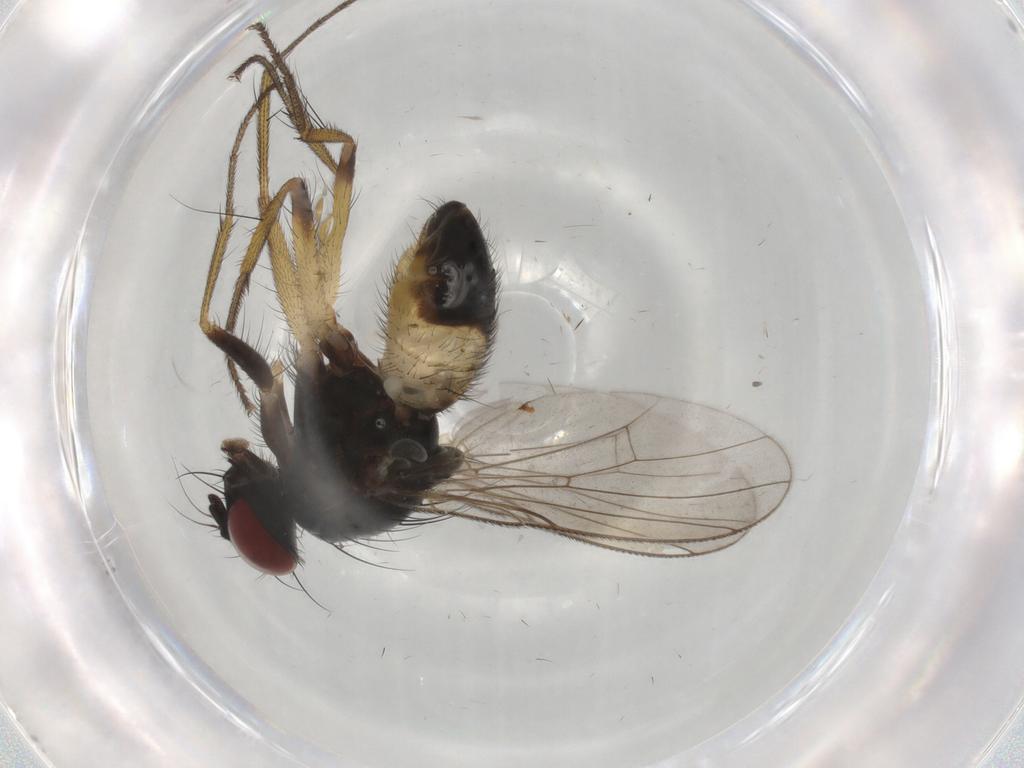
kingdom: Animalia
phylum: Arthropoda
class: Insecta
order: Diptera
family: Muscidae
